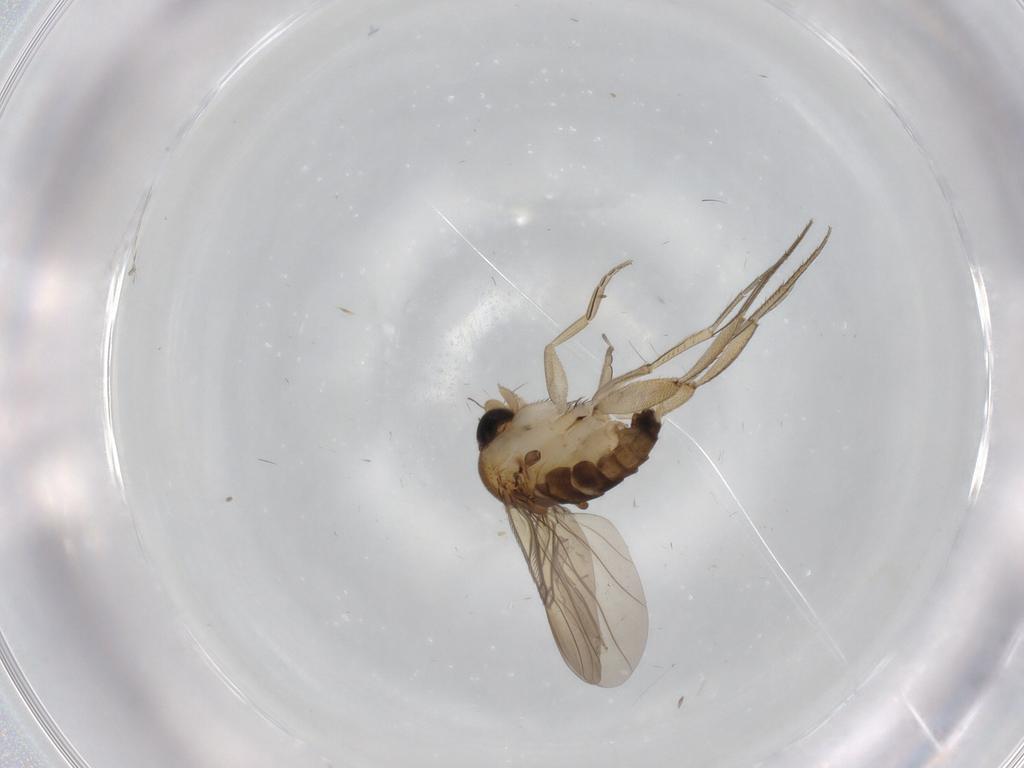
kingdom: Animalia
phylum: Arthropoda
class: Insecta
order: Diptera
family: Phoridae
